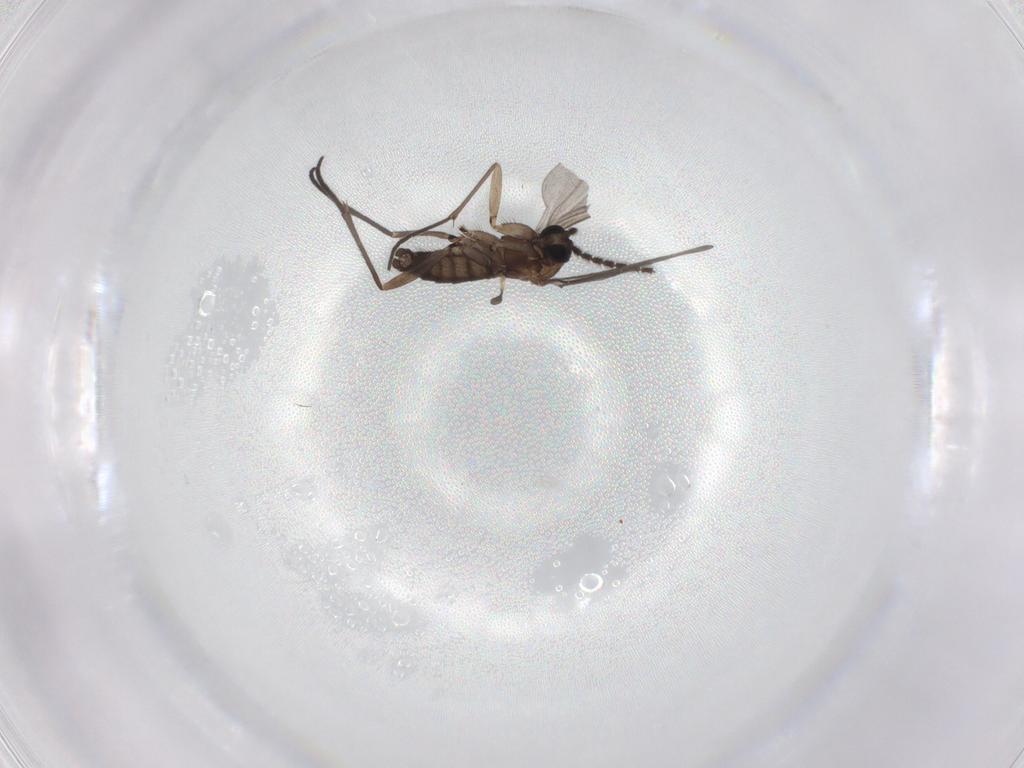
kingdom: Animalia
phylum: Arthropoda
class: Insecta
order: Diptera
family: Sciaridae
